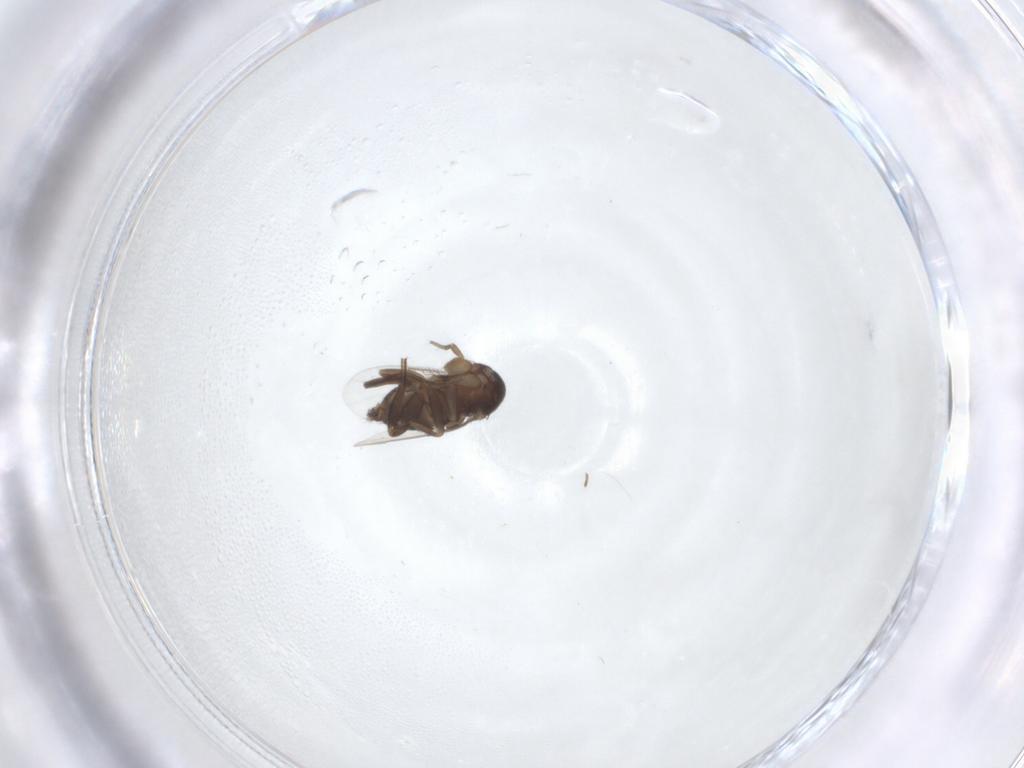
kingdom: Animalia
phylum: Arthropoda
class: Insecta
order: Diptera
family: Phoridae
